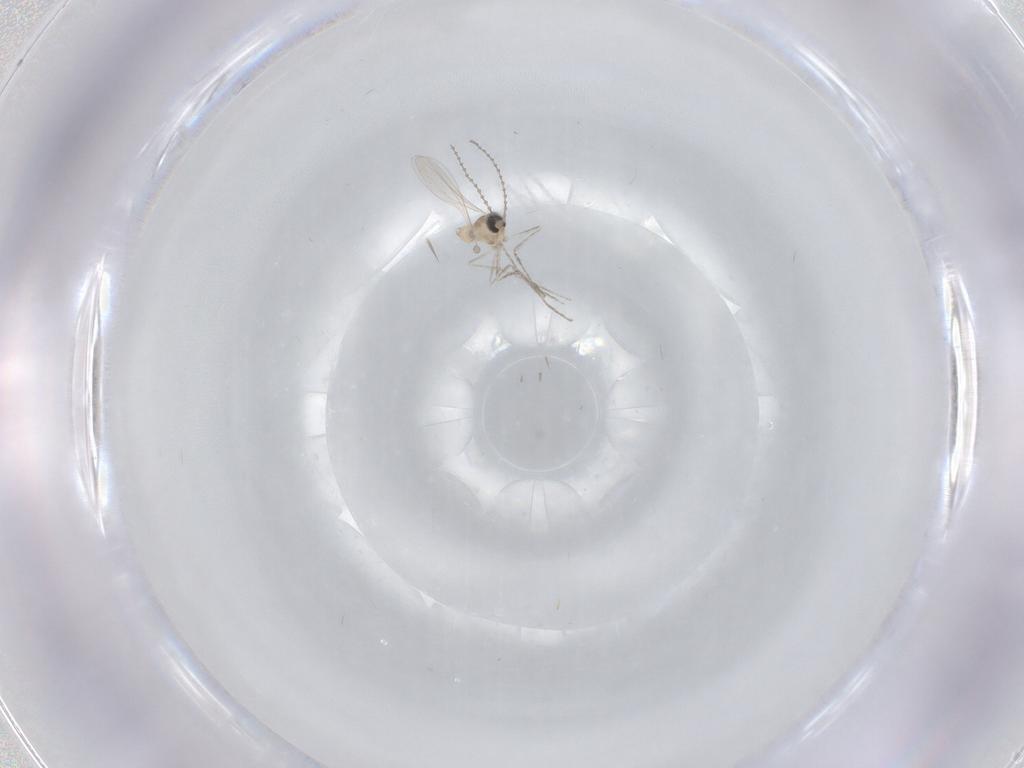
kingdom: Animalia
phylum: Arthropoda
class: Insecta
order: Diptera
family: Cecidomyiidae
